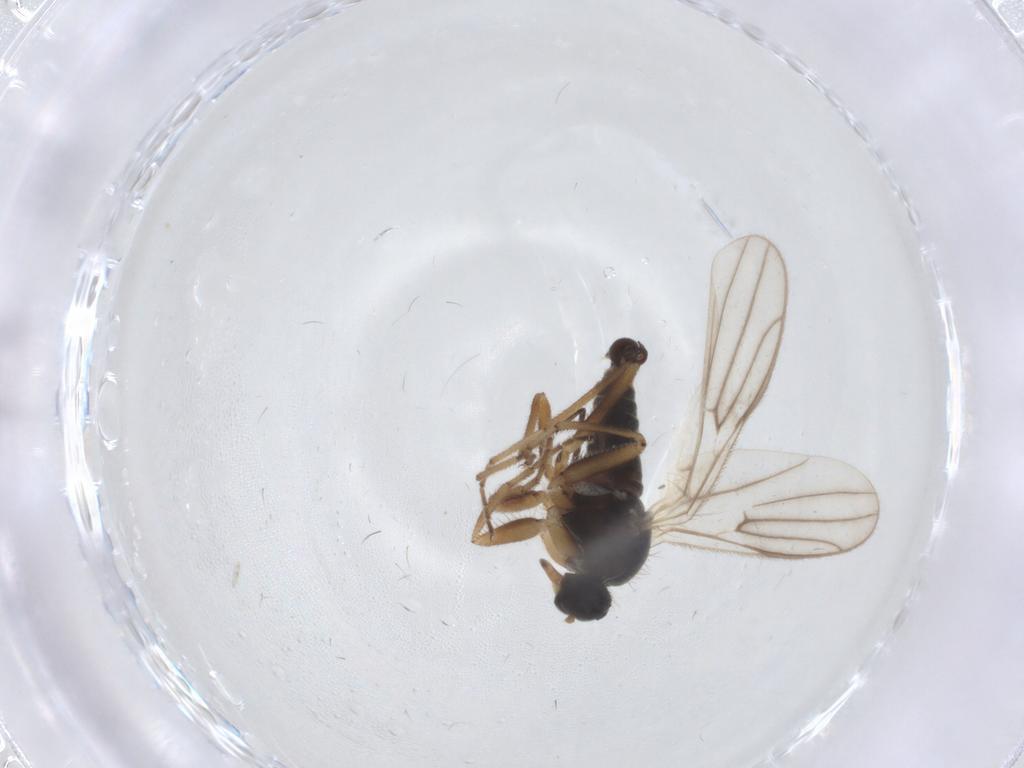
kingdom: Animalia
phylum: Arthropoda
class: Insecta
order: Diptera
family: Hybotidae
